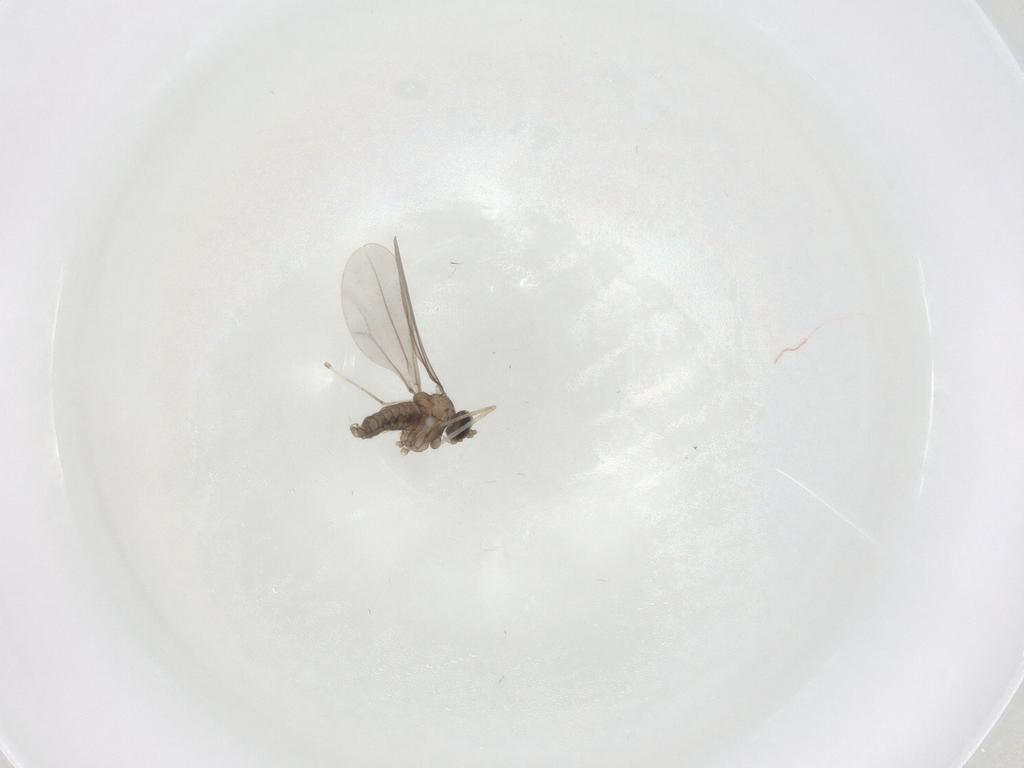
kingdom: Animalia
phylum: Arthropoda
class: Insecta
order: Diptera
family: Cecidomyiidae
